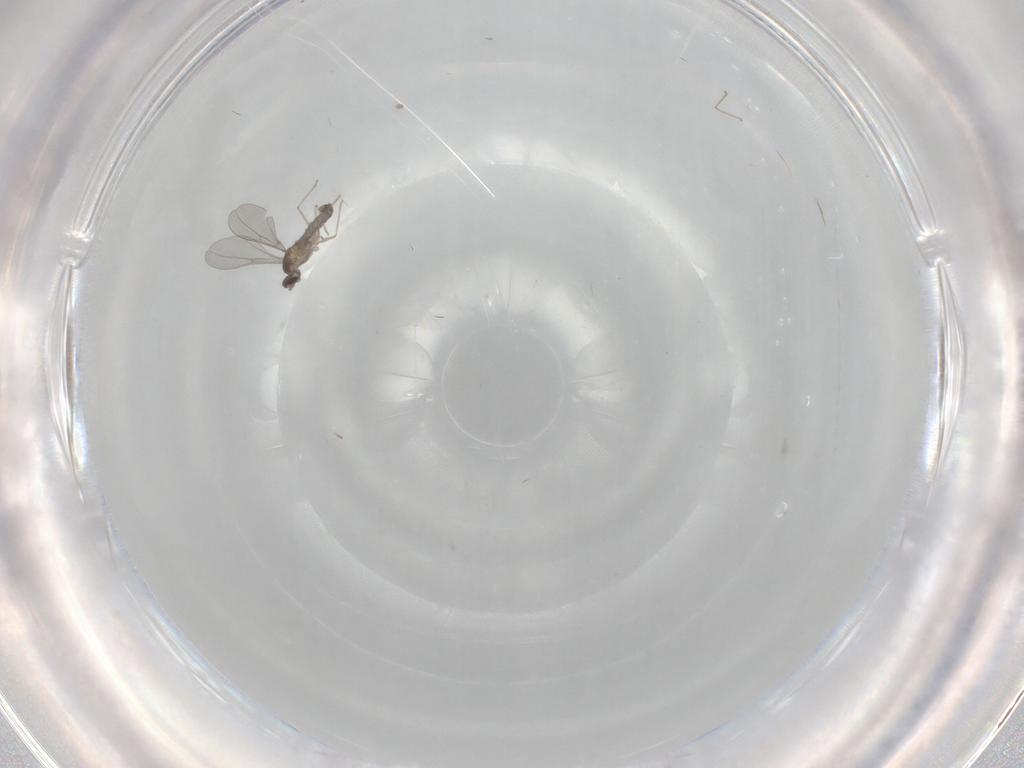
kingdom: Animalia
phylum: Arthropoda
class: Insecta
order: Diptera
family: Cecidomyiidae
